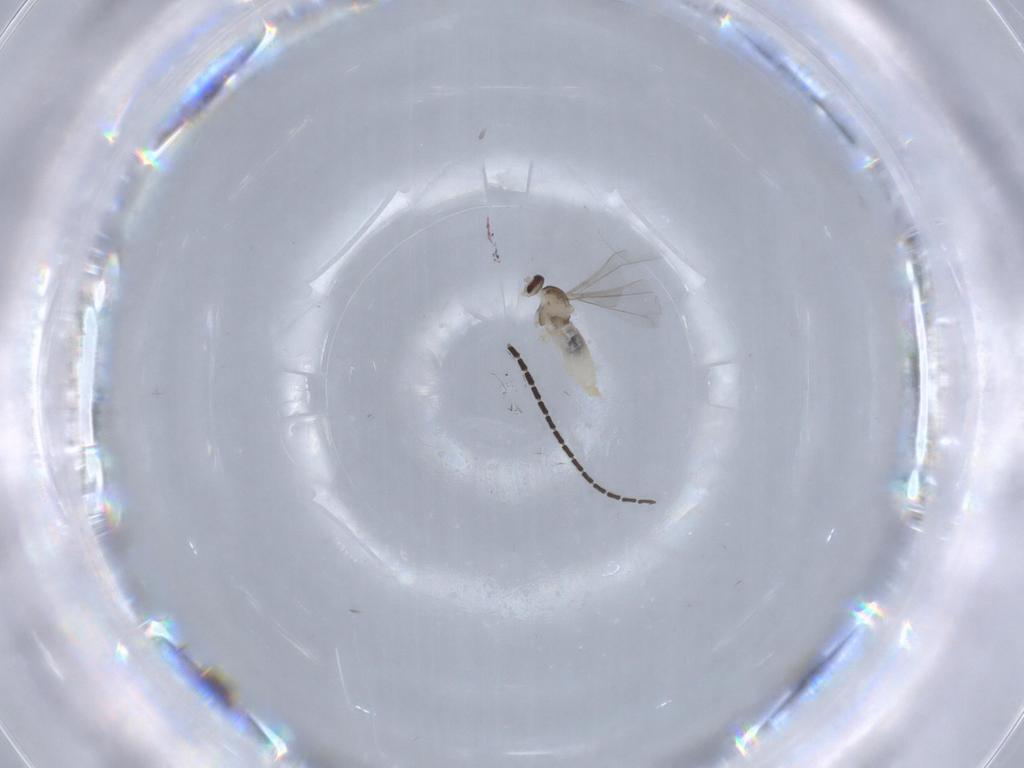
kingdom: Animalia
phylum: Arthropoda
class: Insecta
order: Diptera
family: Cecidomyiidae
